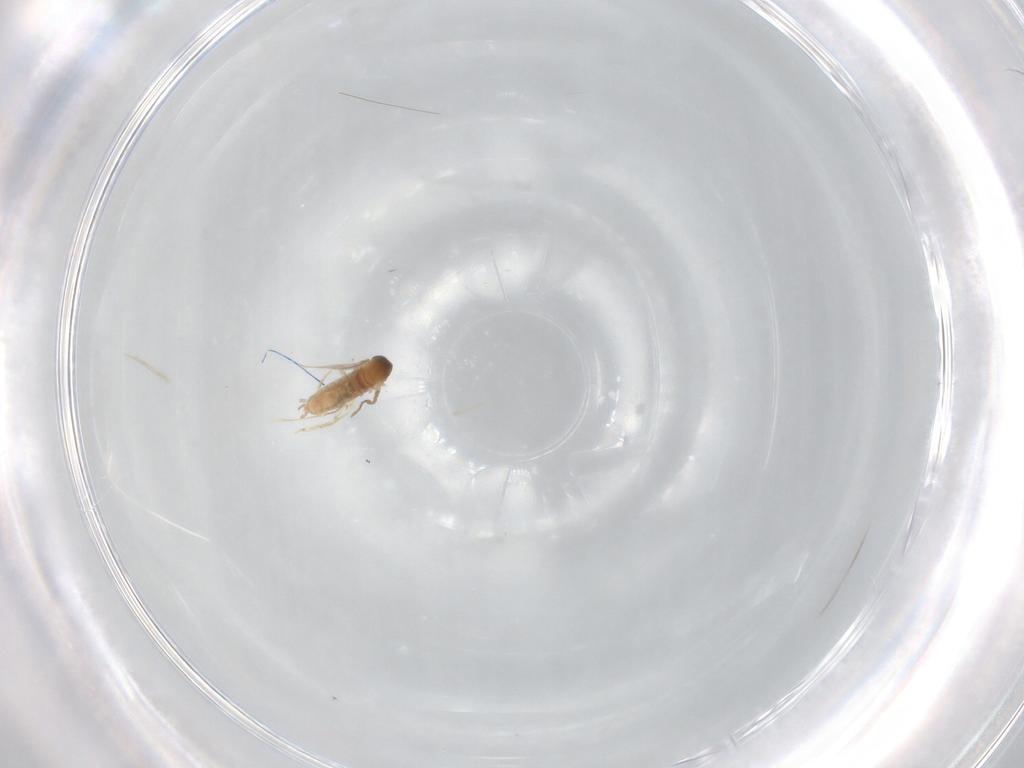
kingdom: Animalia
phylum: Arthropoda
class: Insecta
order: Diptera
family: Cecidomyiidae
